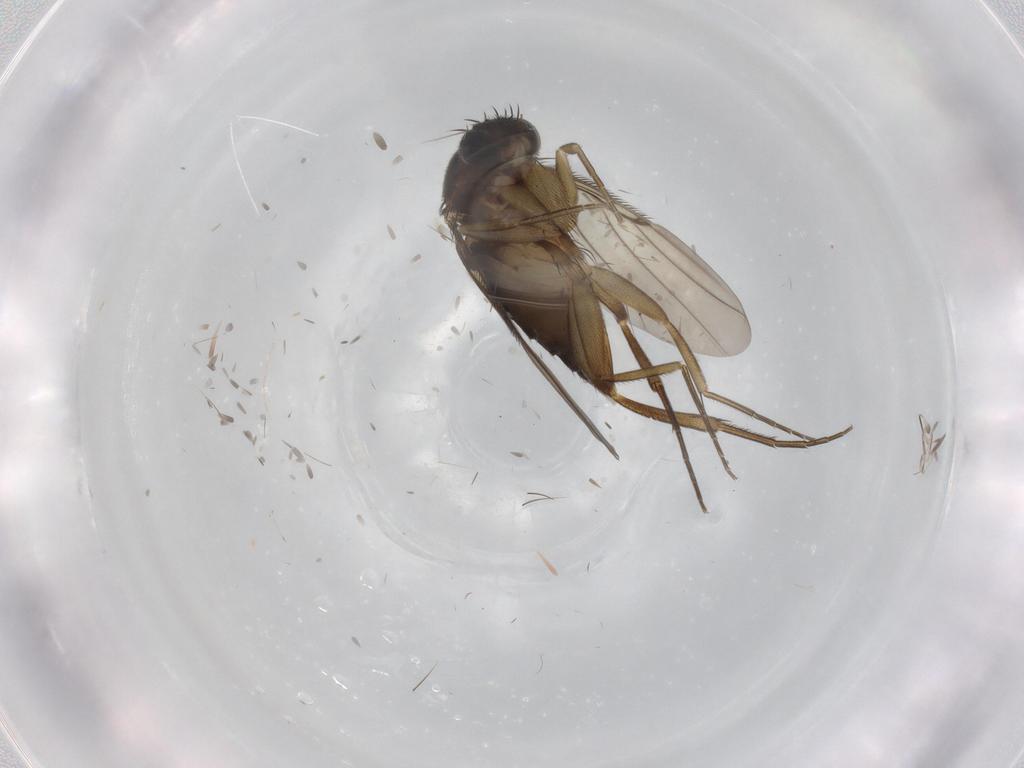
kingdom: Animalia
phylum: Arthropoda
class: Insecta
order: Diptera
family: Phoridae
